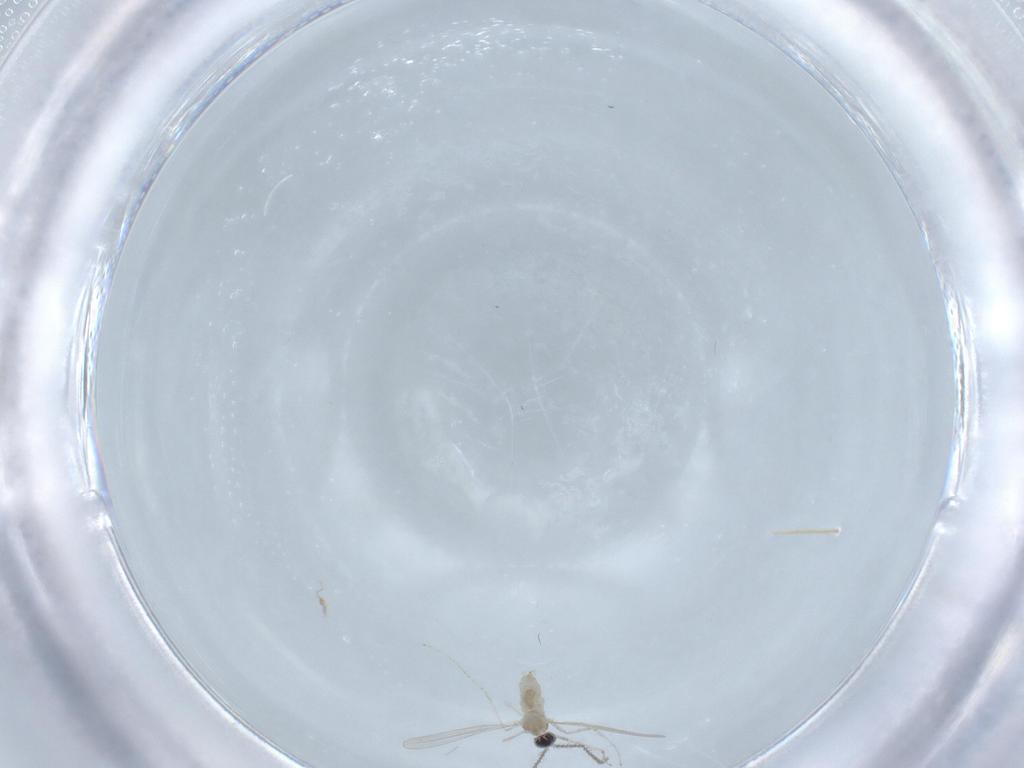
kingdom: Animalia
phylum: Arthropoda
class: Insecta
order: Diptera
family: Cecidomyiidae
